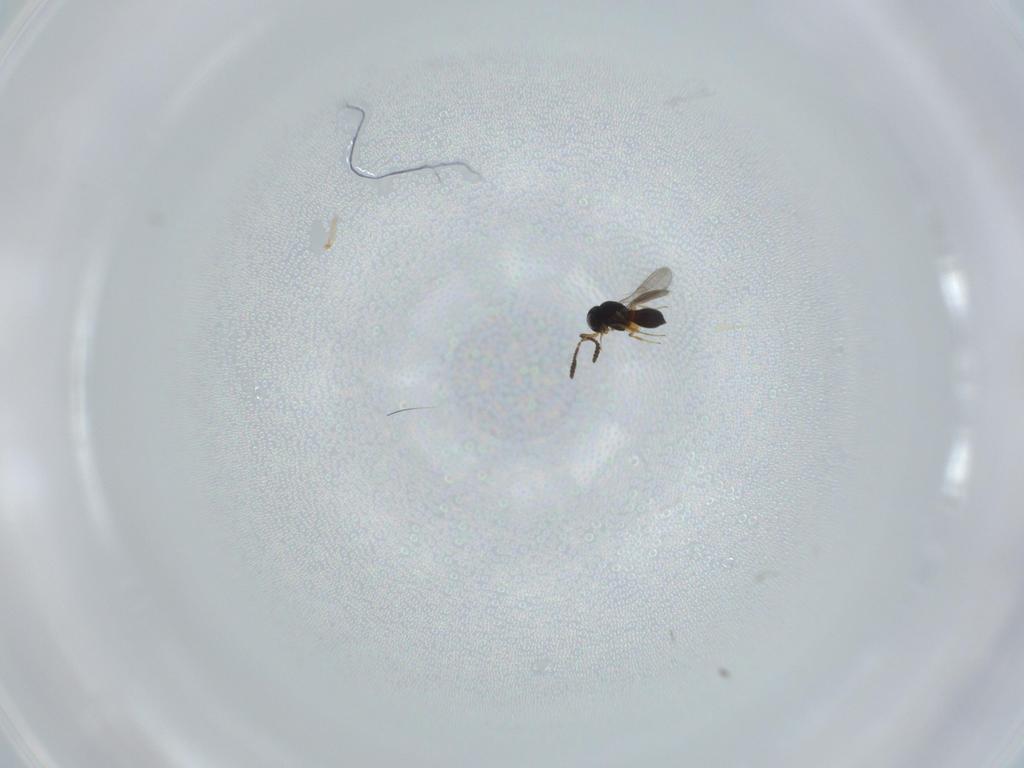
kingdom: Animalia
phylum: Arthropoda
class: Insecta
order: Hymenoptera
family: Scelionidae
